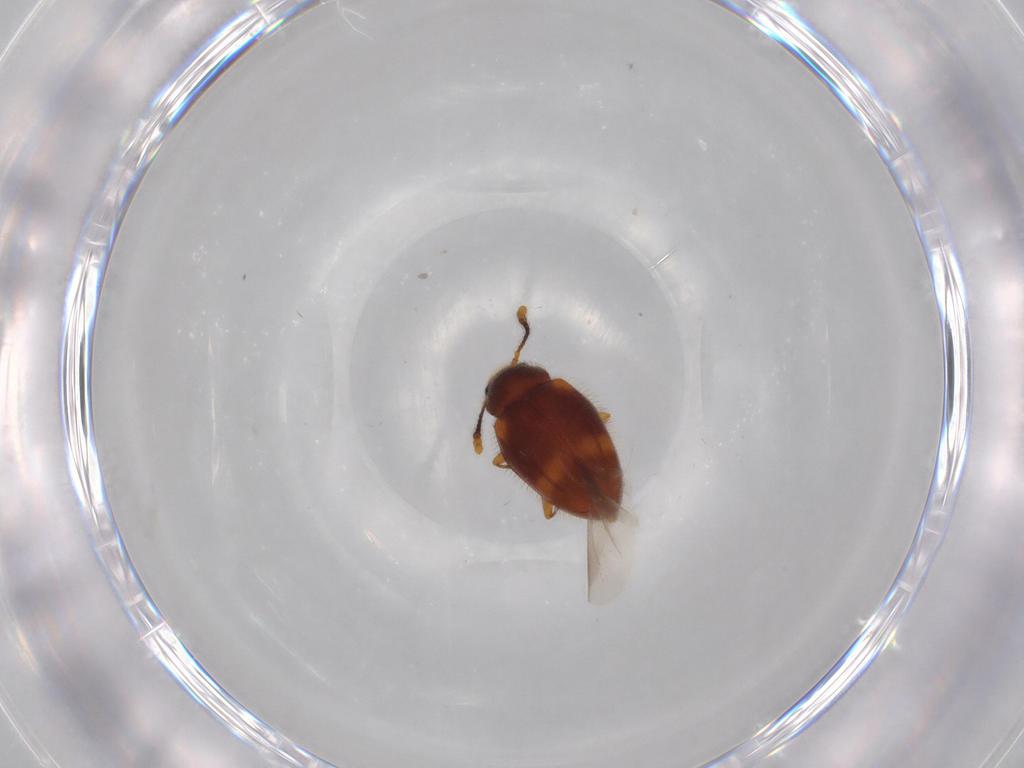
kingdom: Animalia
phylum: Arthropoda
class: Insecta
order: Coleoptera
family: Erotylidae
